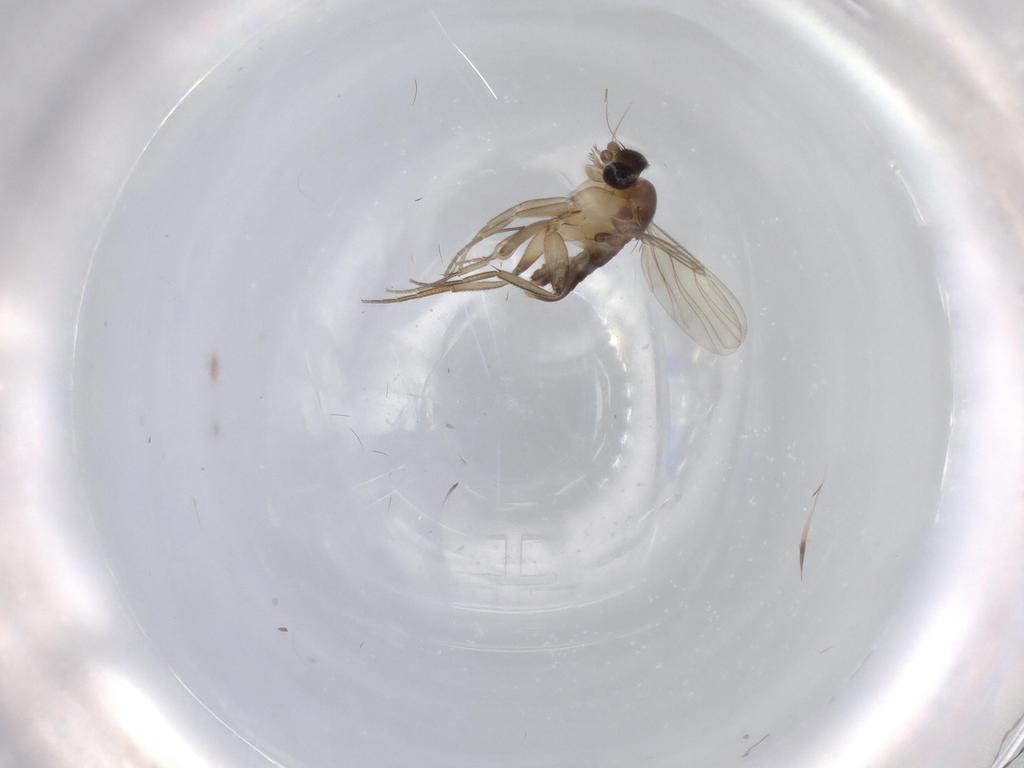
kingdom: Animalia
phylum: Arthropoda
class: Insecta
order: Diptera
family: Phoridae
